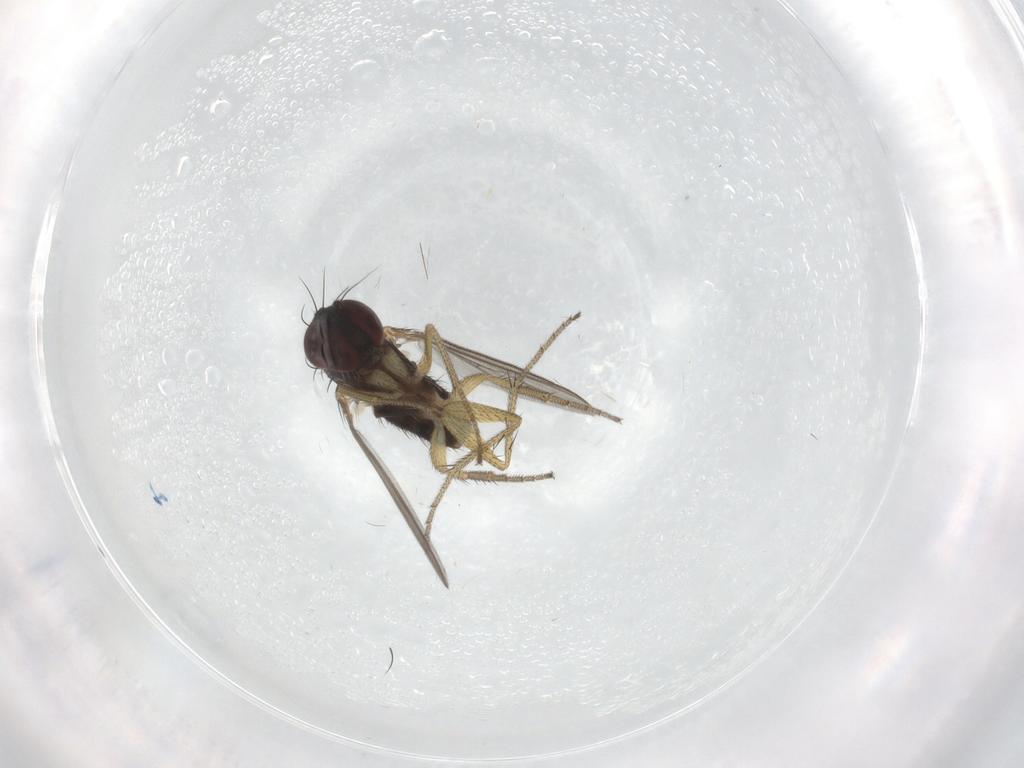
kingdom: Animalia
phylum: Arthropoda
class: Insecta
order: Diptera
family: Dolichopodidae
